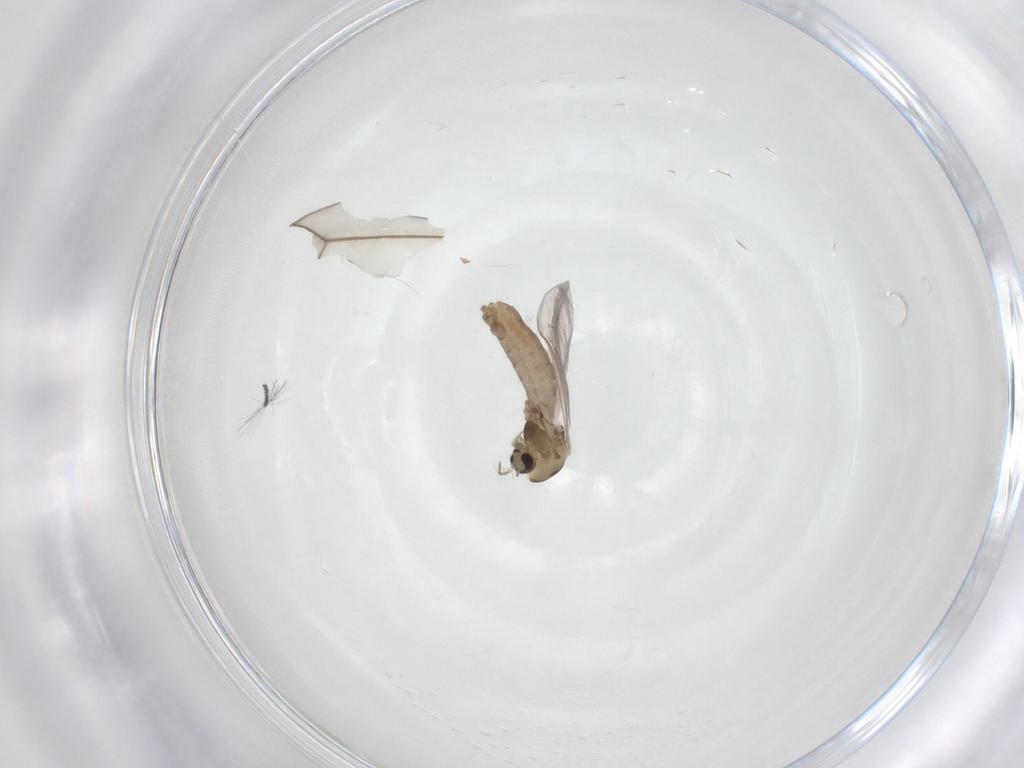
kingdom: Animalia
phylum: Arthropoda
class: Insecta
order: Diptera
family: Chironomidae
